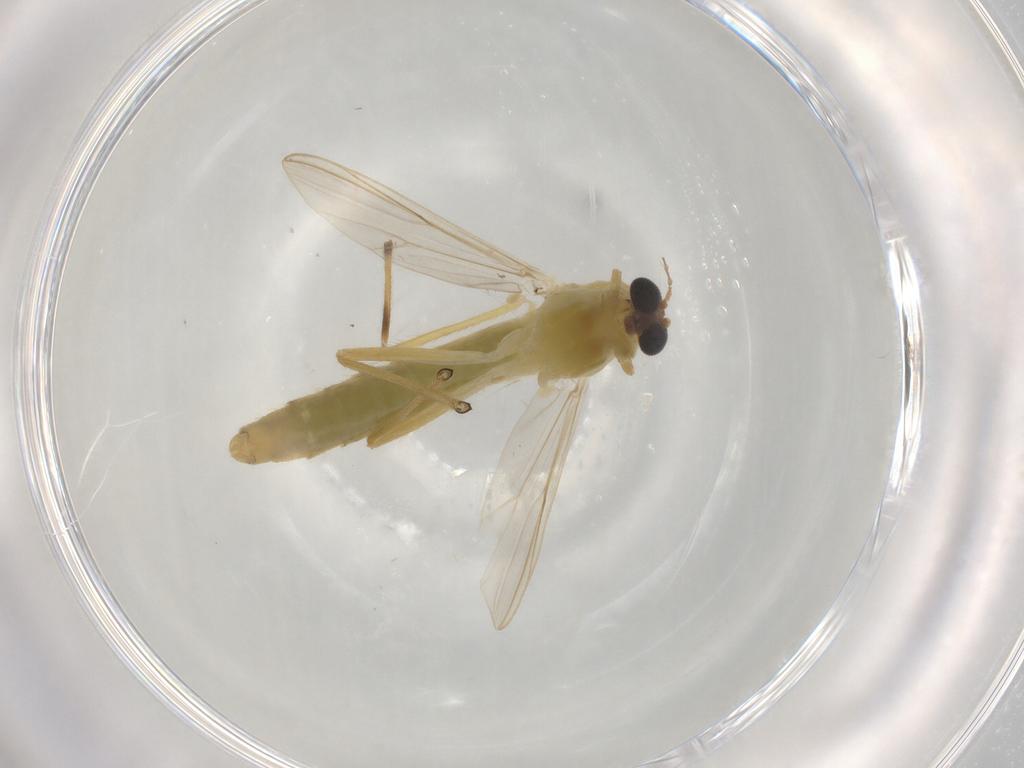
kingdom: Animalia
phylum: Arthropoda
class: Insecta
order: Diptera
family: Chironomidae
